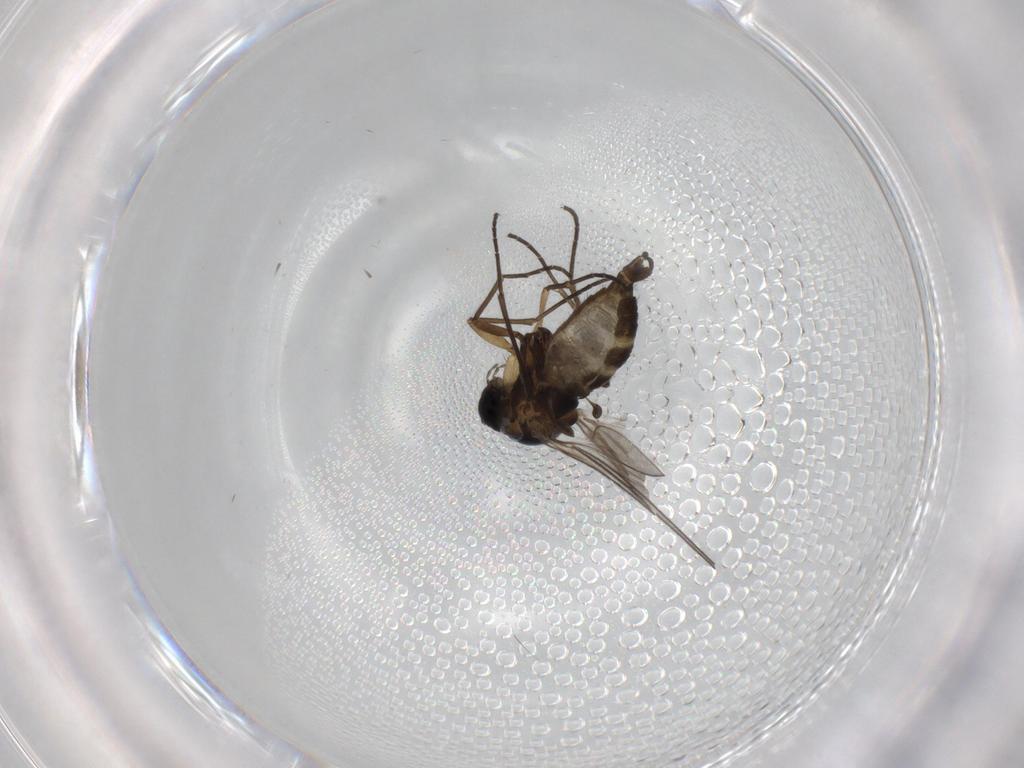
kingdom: Animalia
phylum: Arthropoda
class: Insecta
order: Diptera
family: Sciaridae
